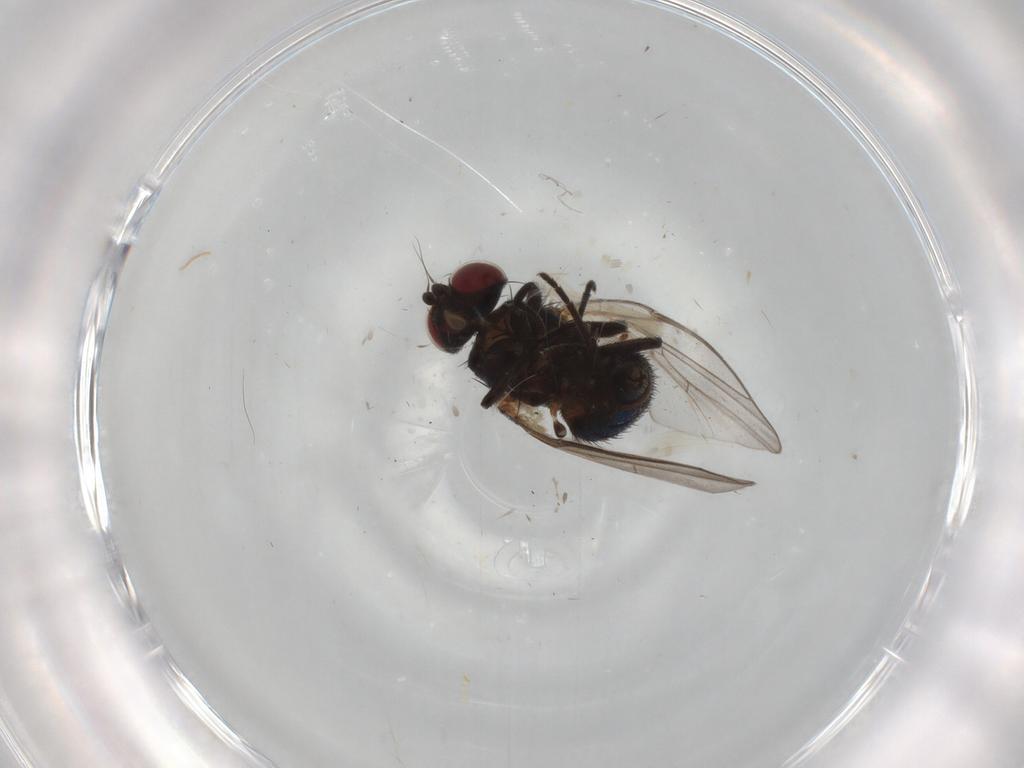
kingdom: Animalia
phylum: Arthropoda
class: Insecta
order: Diptera
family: Agromyzidae
